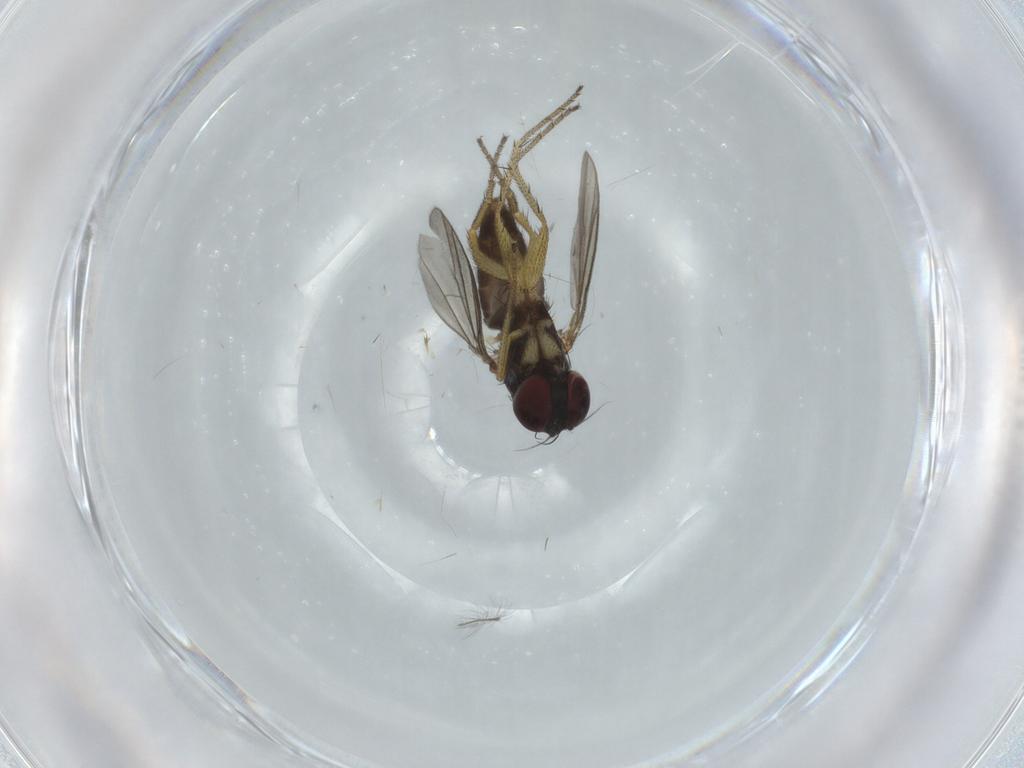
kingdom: Animalia
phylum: Arthropoda
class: Insecta
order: Diptera
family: Dolichopodidae
